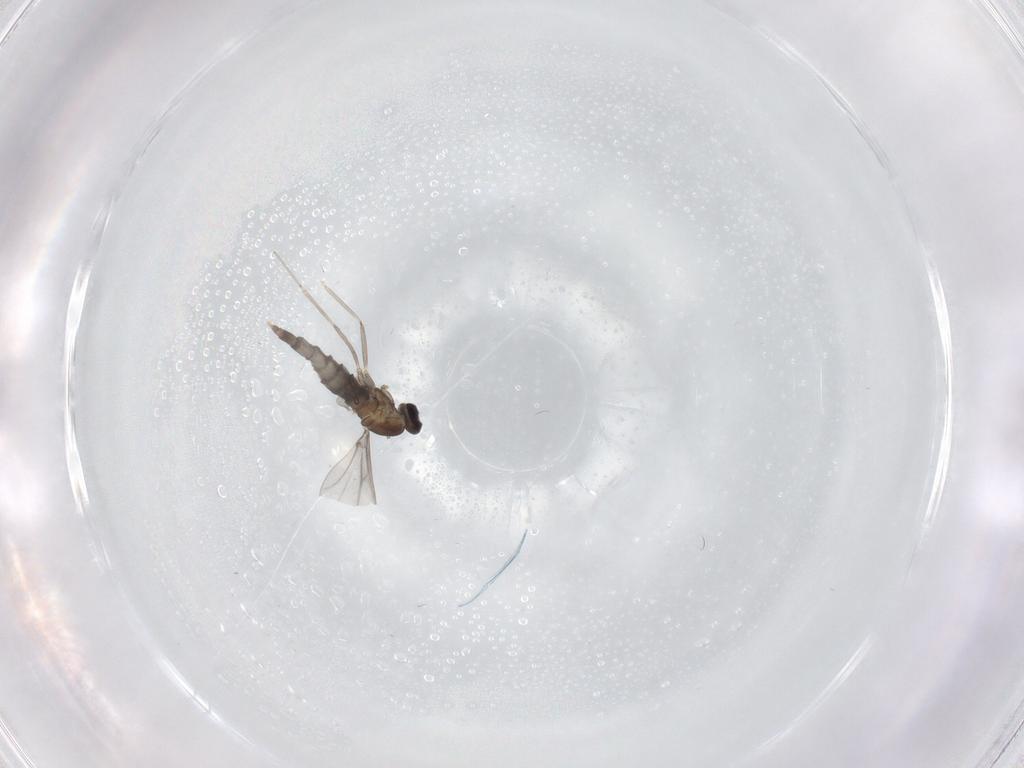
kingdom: Animalia
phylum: Arthropoda
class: Insecta
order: Diptera
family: Cecidomyiidae
